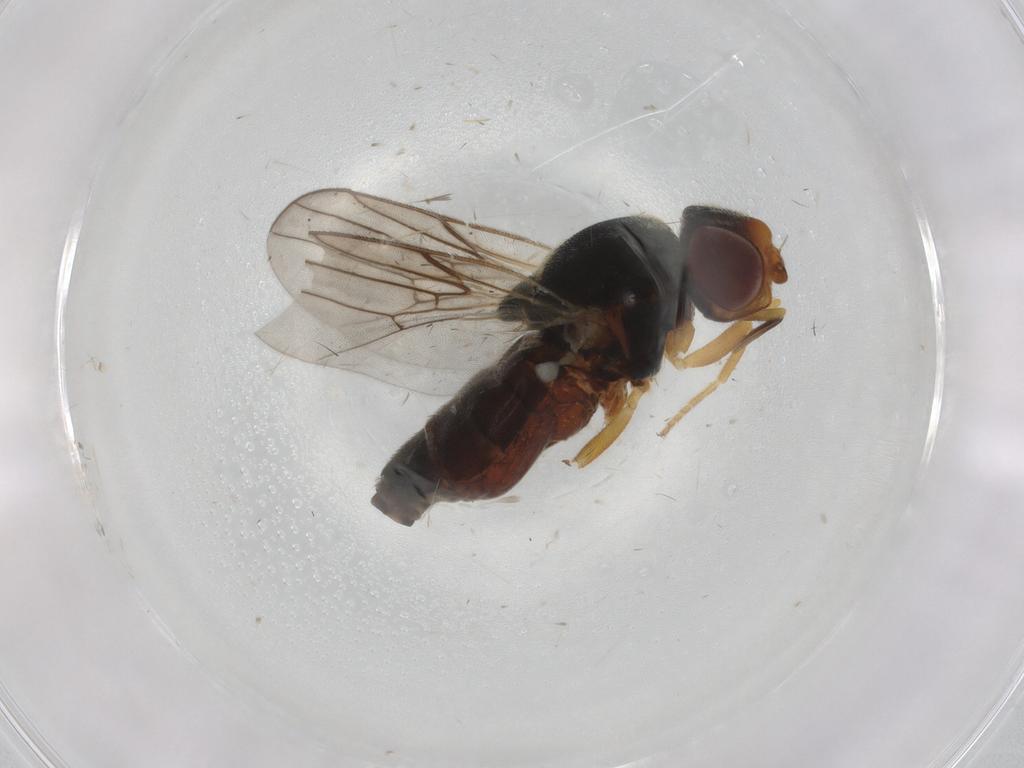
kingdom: Animalia
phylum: Arthropoda
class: Insecta
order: Diptera
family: Chloropidae
